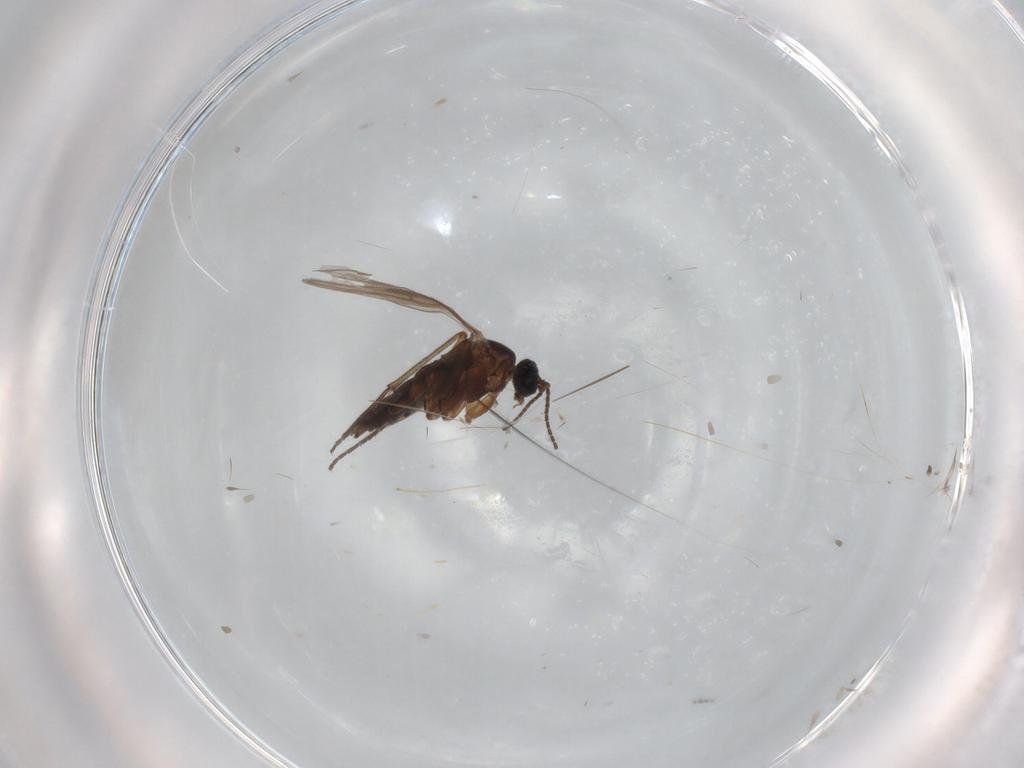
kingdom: Animalia
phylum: Arthropoda
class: Insecta
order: Diptera
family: Cecidomyiidae
